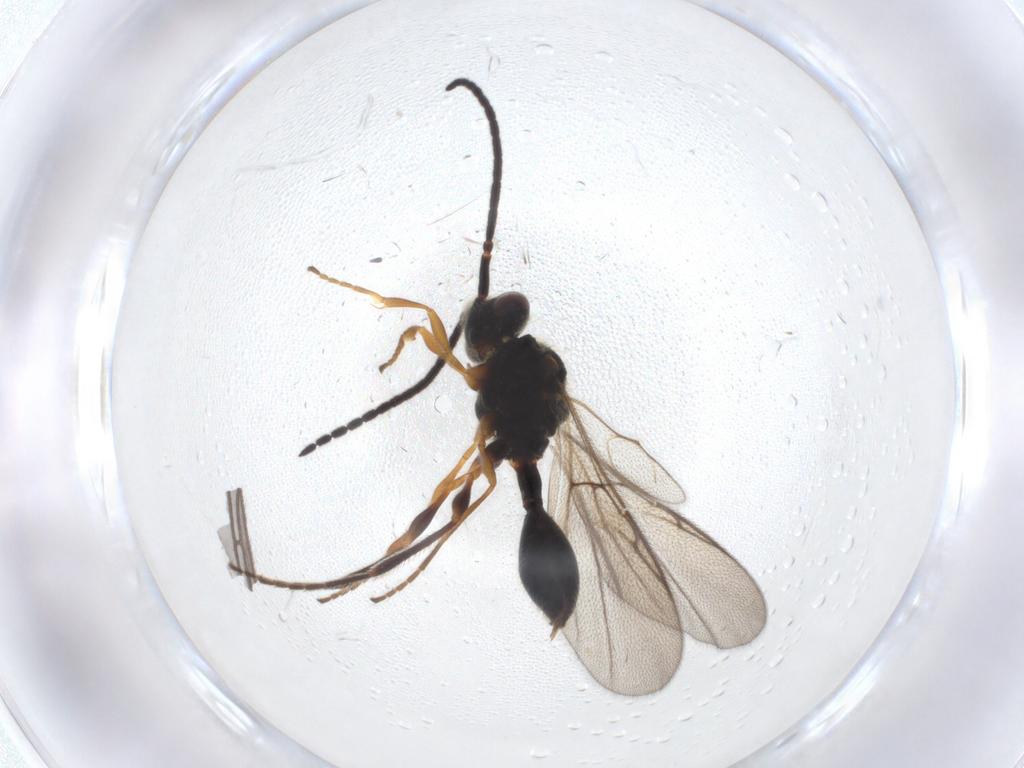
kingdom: Animalia
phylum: Arthropoda
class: Insecta
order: Hymenoptera
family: Diapriidae
